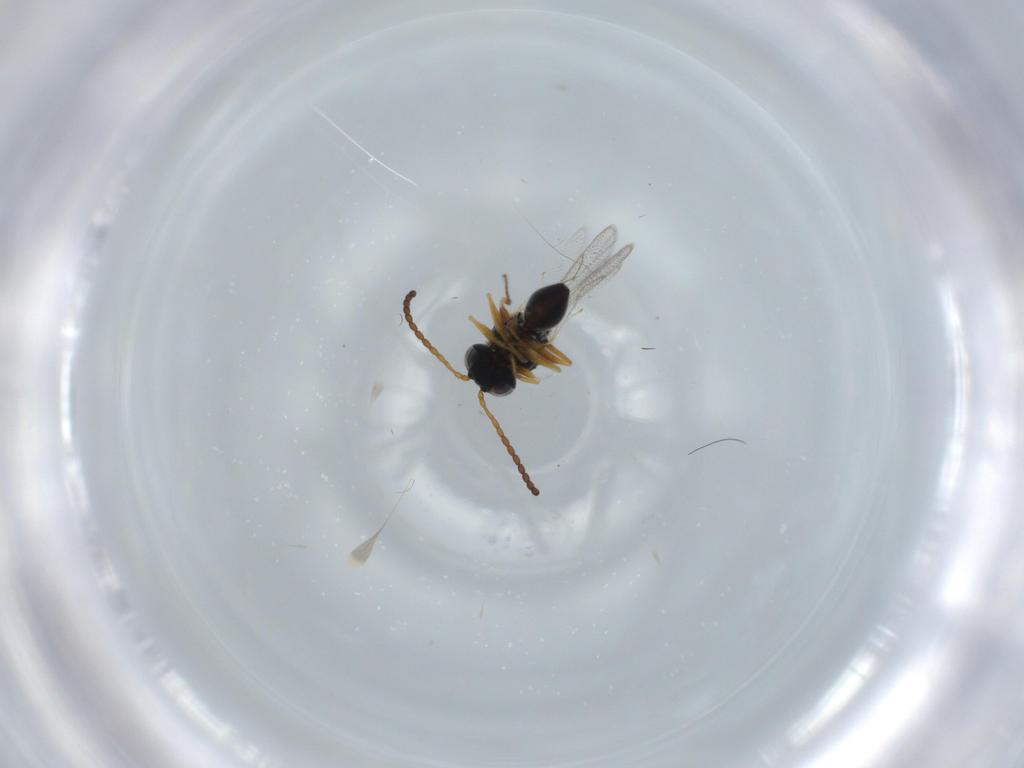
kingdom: Animalia
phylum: Arthropoda
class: Insecta
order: Hymenoptera
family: Figitidae
